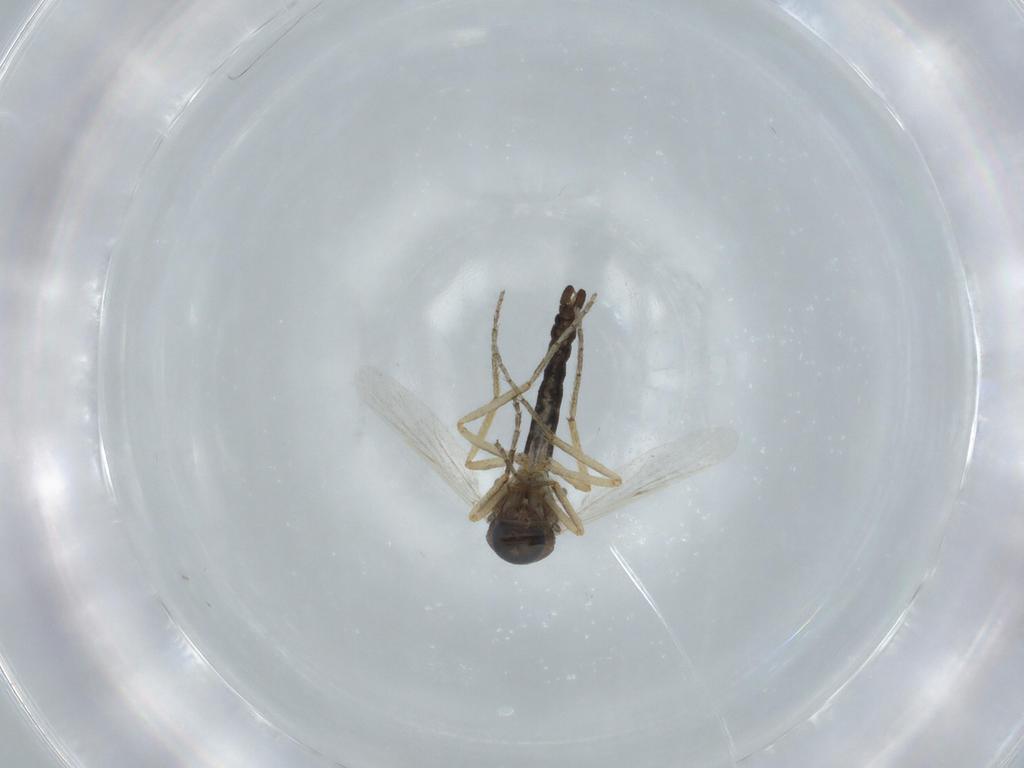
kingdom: Animalia
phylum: Arthropoda
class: Insecta
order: Diptera
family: Ceratopogonidae
